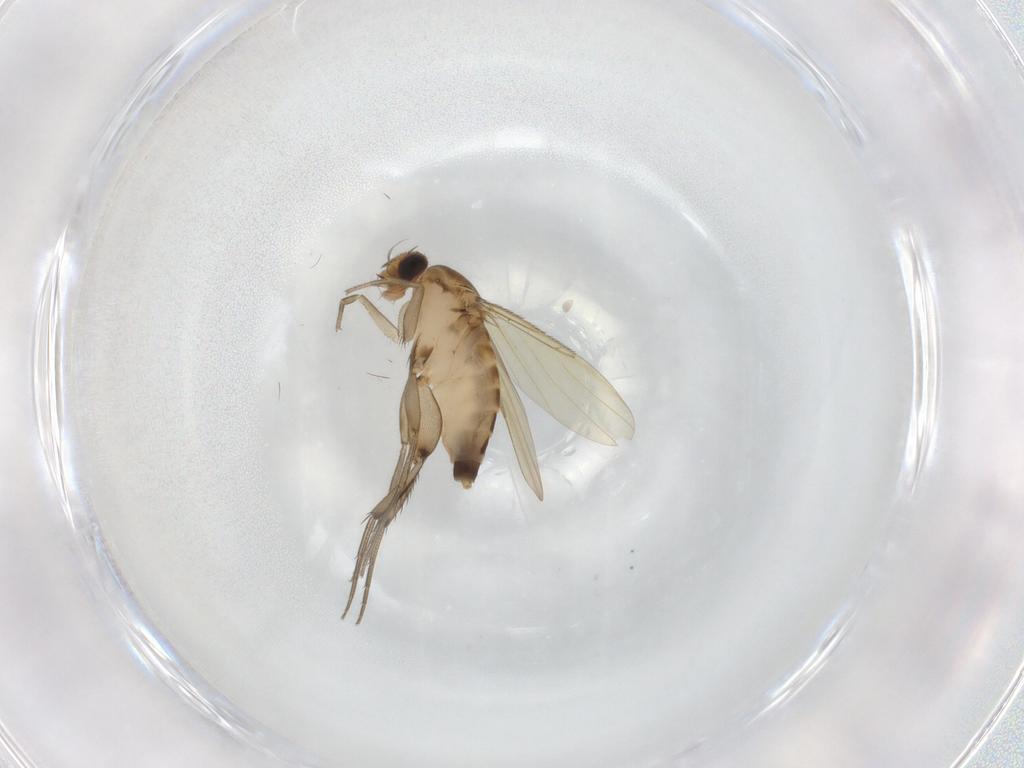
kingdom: Animalia
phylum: Arthropoda
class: Insecta
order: Diptera
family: Phoridae
